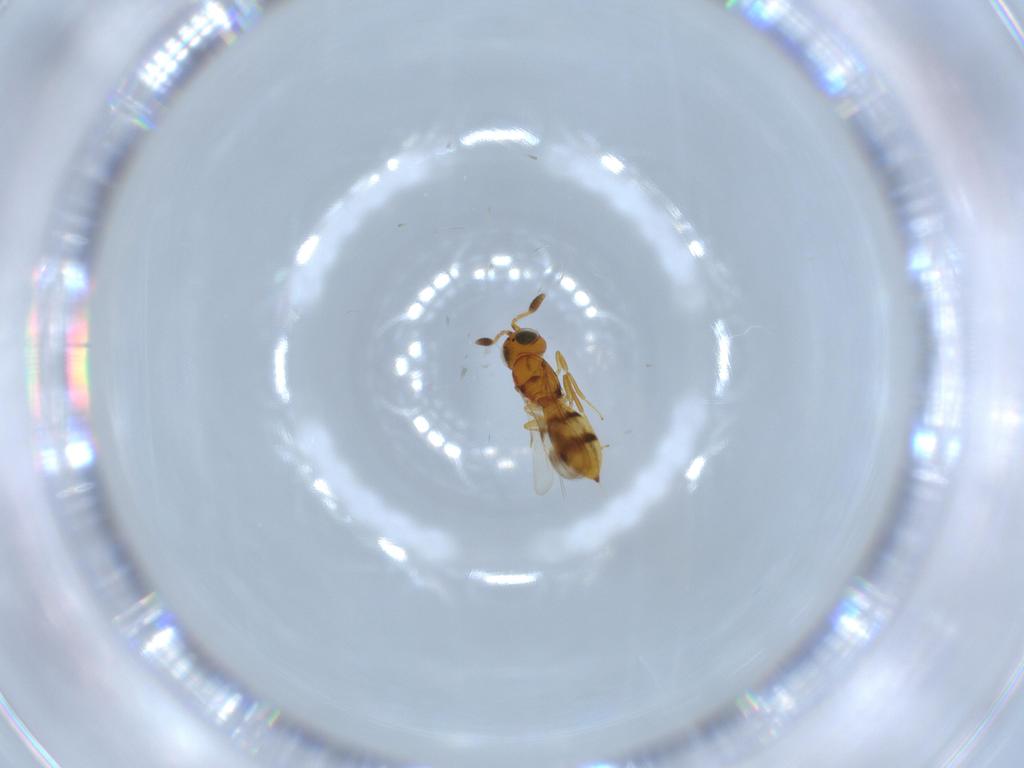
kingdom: Animalia
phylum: Arthropoda
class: Insecta
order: Hymenoptera
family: Scelionidae
